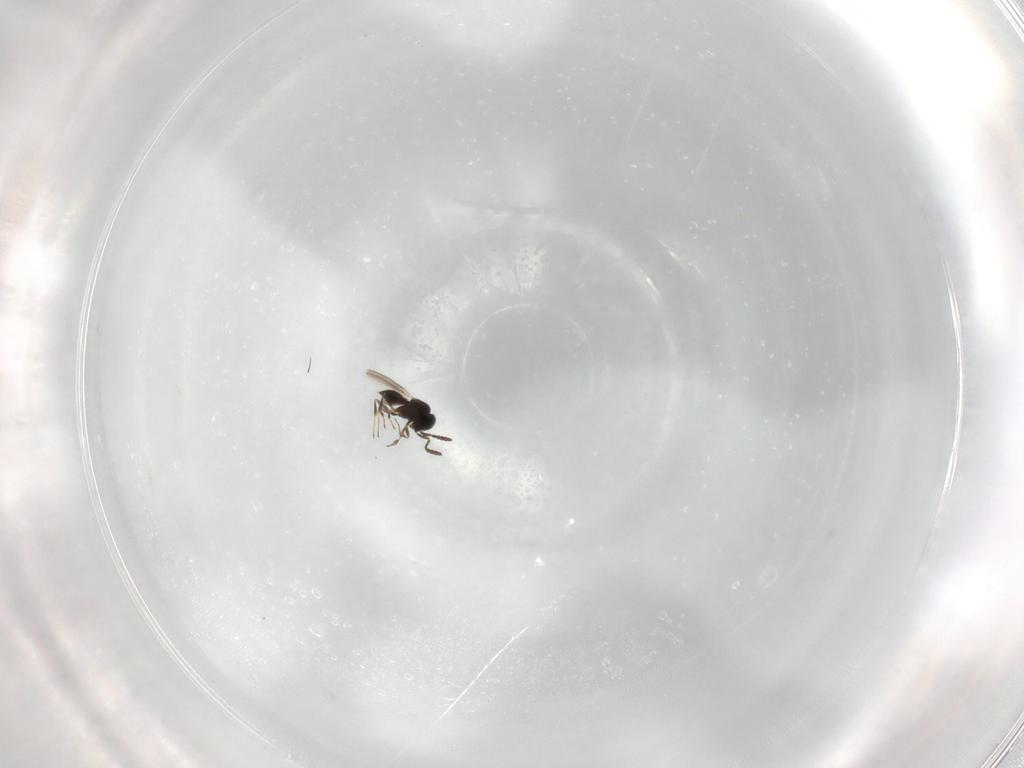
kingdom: Animalia
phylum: Arthropoda
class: Insecta
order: Hymenoptera
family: Scelionidae
